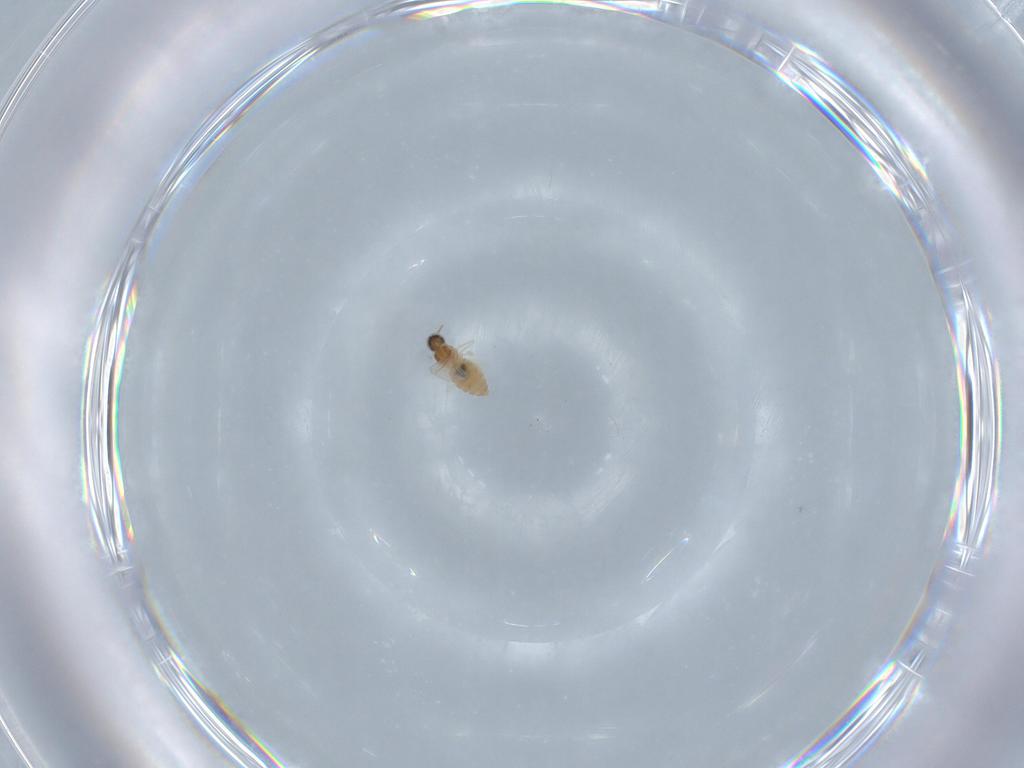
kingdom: Animalia
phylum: Arthropoda
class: Insecta
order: Diptera
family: Cecidomyiidae
